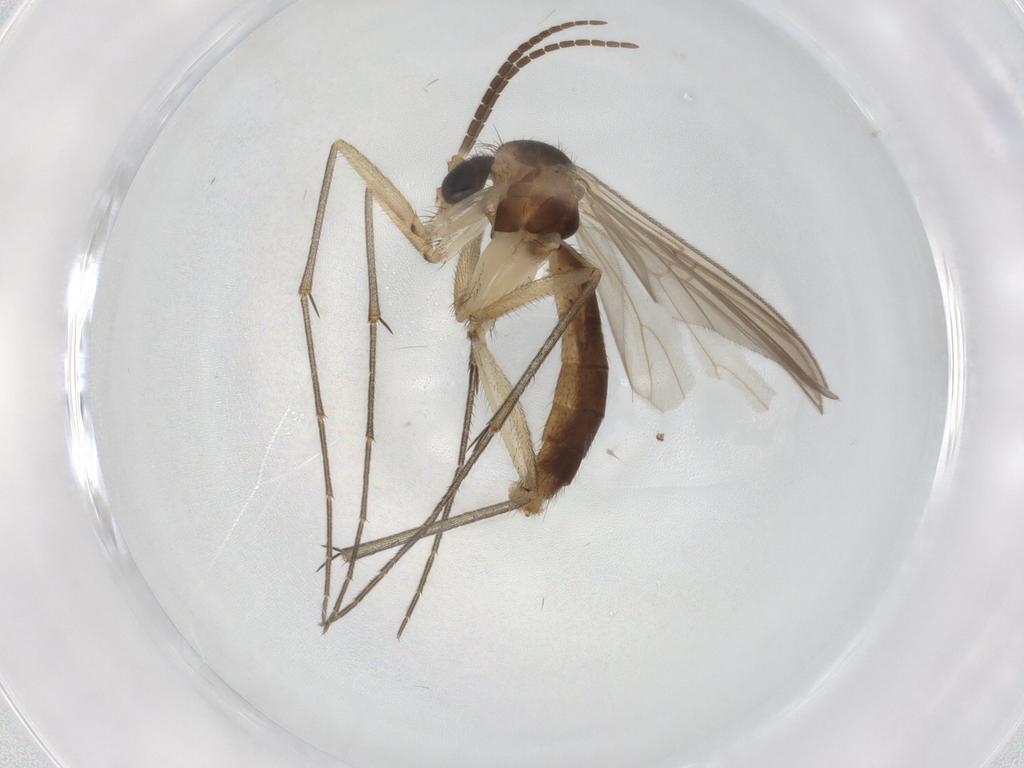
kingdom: Animalia
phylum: Arthropoda
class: Insecta
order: Diptera
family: Mycetophilidae
